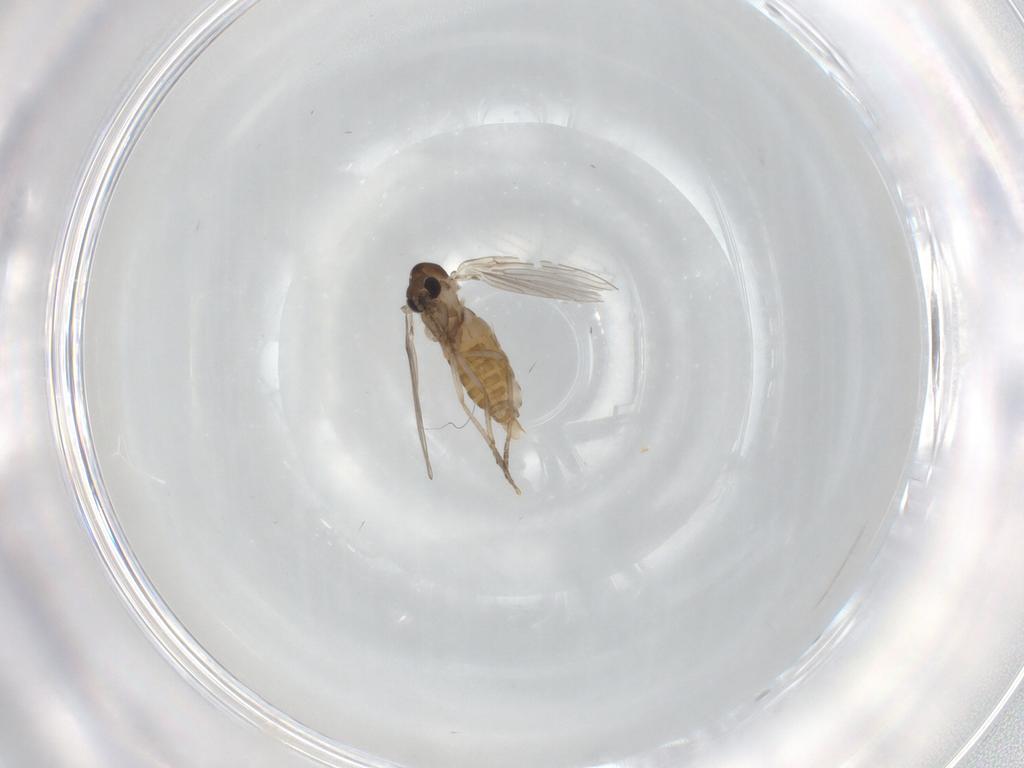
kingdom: Animalia
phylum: Arthropoda
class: Insecta
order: Diptera
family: Psychodidae
